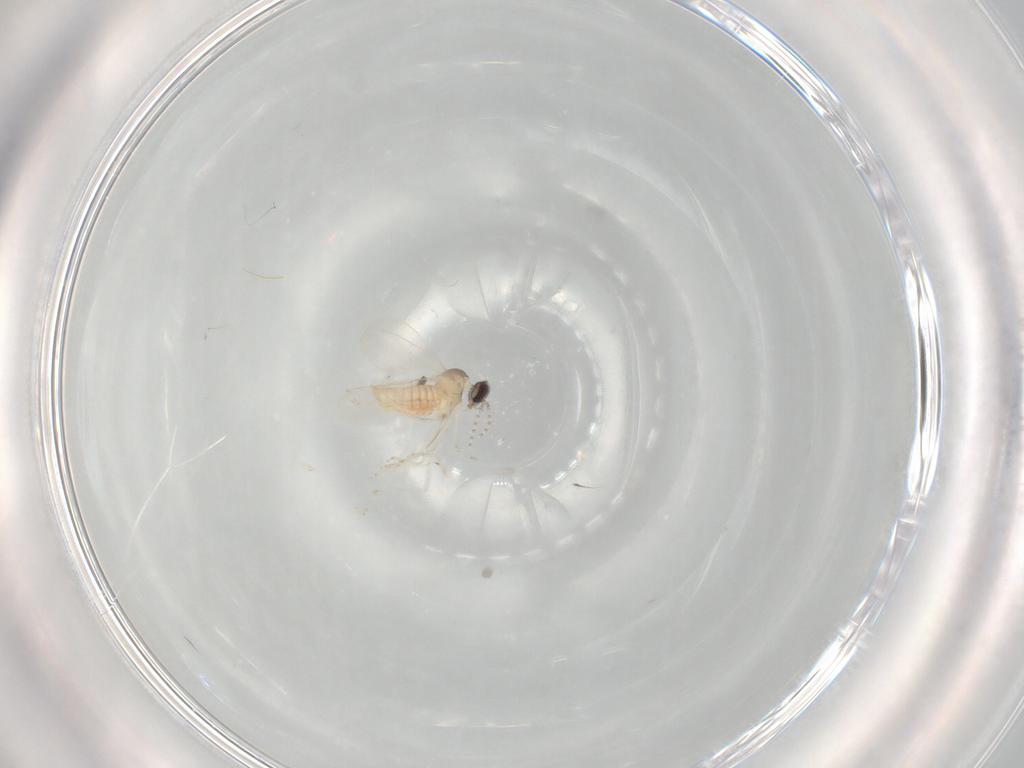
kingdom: Animalia
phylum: Arthropoda
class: Insecta
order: Diptera
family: Cecidomyiidae
